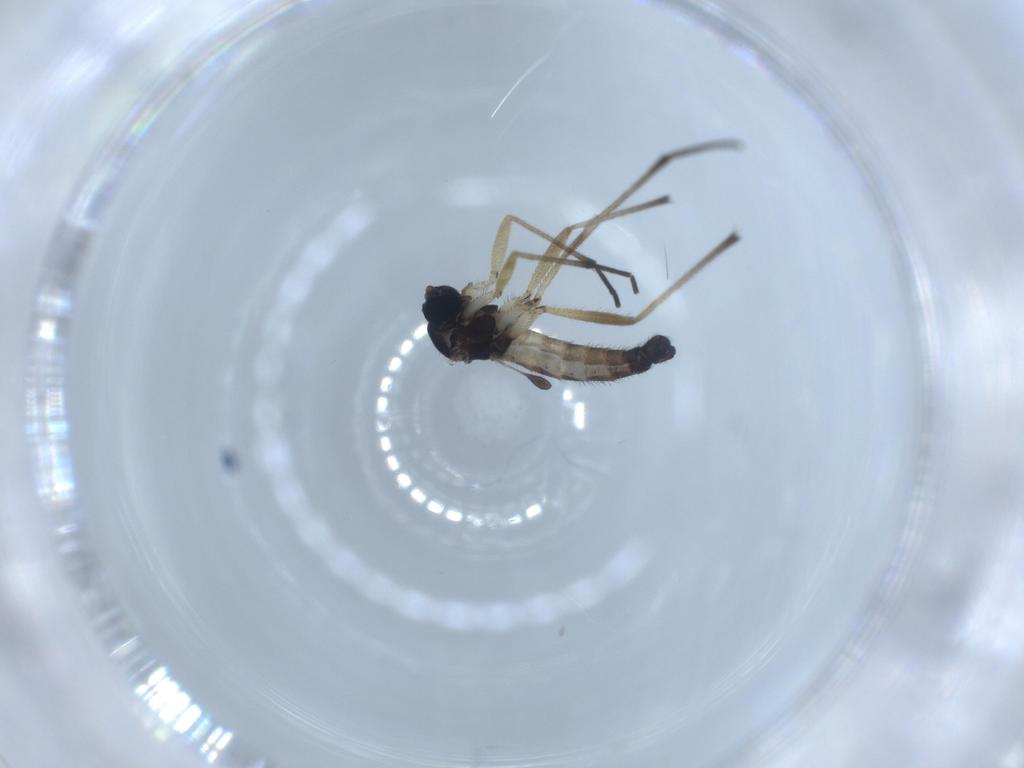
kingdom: Animalia
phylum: Arthropoda
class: Insecta
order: Diptera
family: Sciaridae
